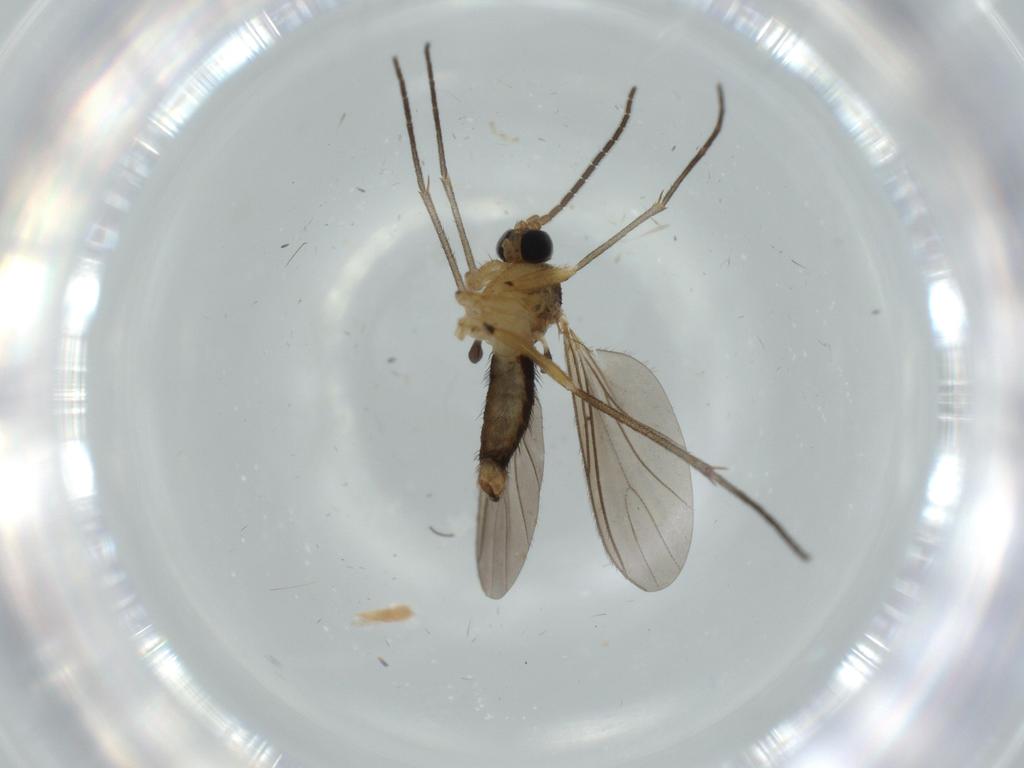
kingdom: Animalia
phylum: Arthropoda
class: Insecta
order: Diptera
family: Sciaridae
